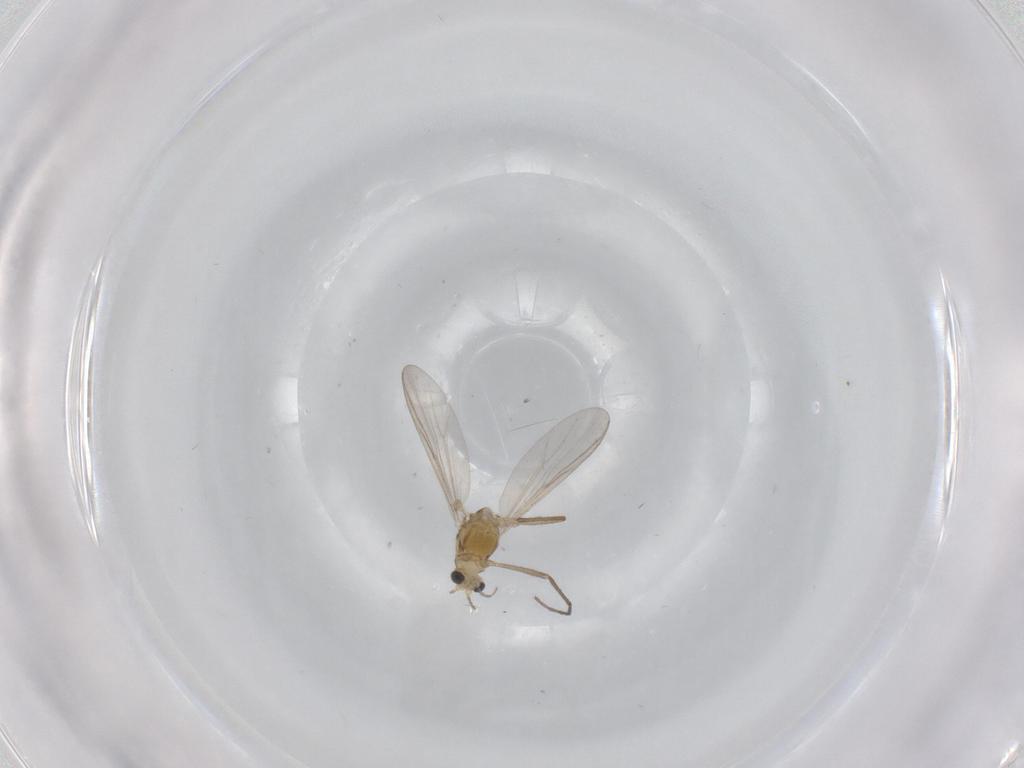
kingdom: Animalia
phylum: Arthropoda
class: Insecta
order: Diptera
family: Chironomidae
